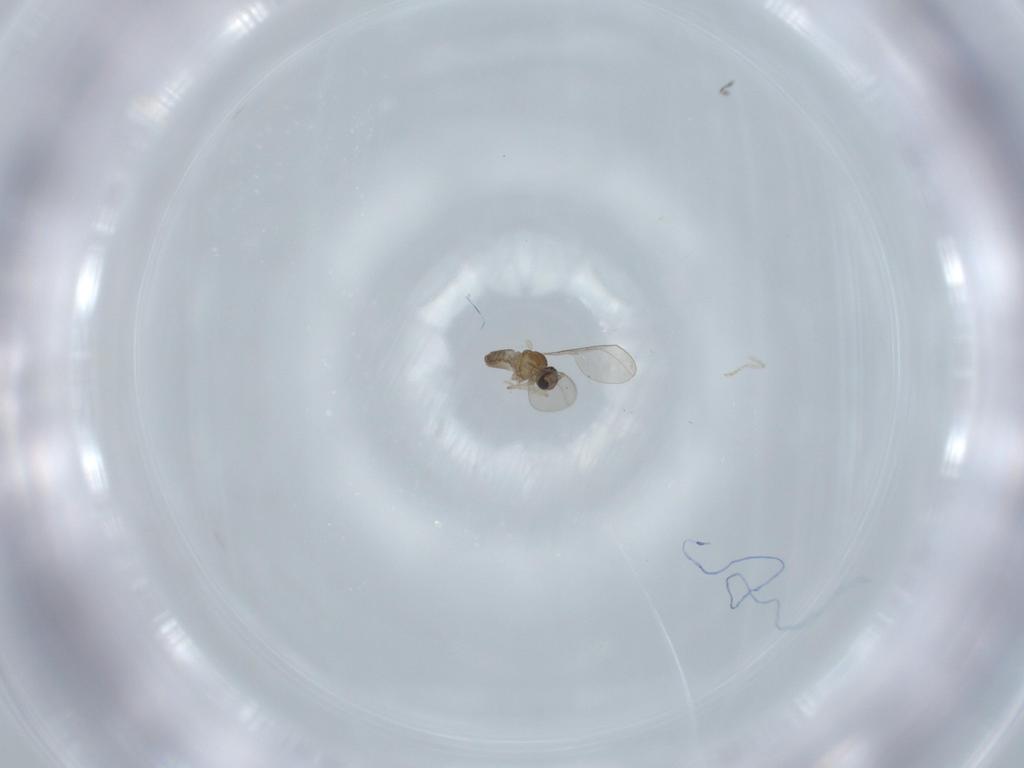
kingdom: Animalia
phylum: Arthropoda
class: Insecta
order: Diptera
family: Cecidomyiidae
